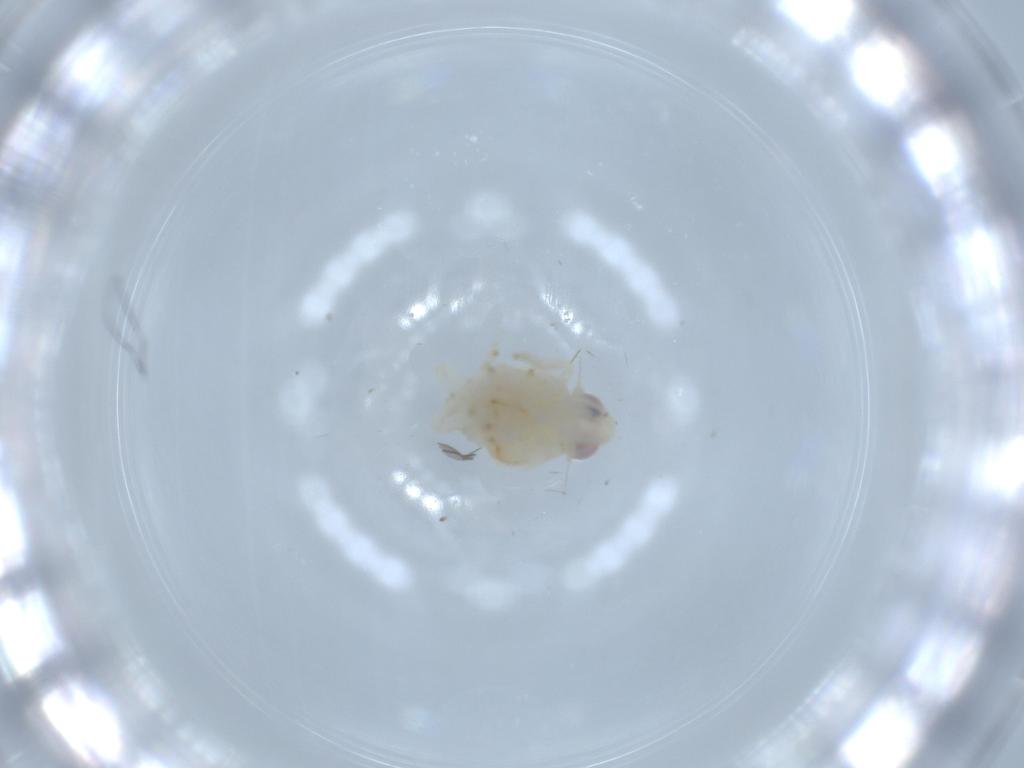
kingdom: Animalia
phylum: Arthropoda
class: Insecta
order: Hemiptera
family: Nogodinidae
